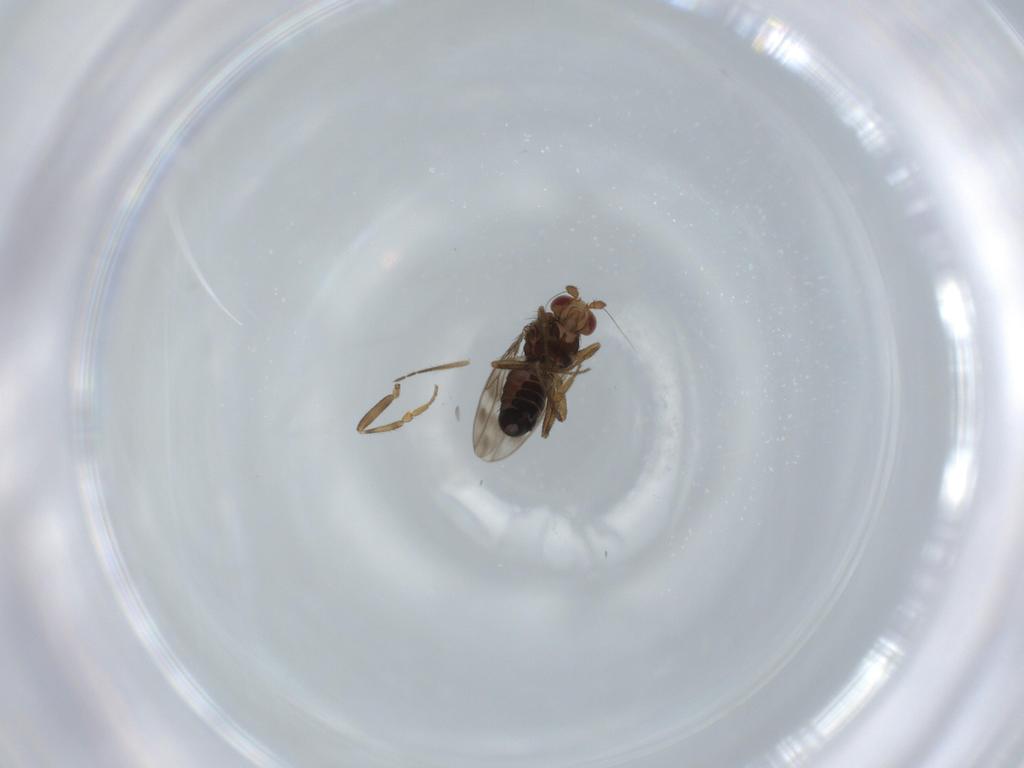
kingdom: Animalia
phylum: Arthropoda
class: Insecta
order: Diptera
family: Sphaeroceridae
